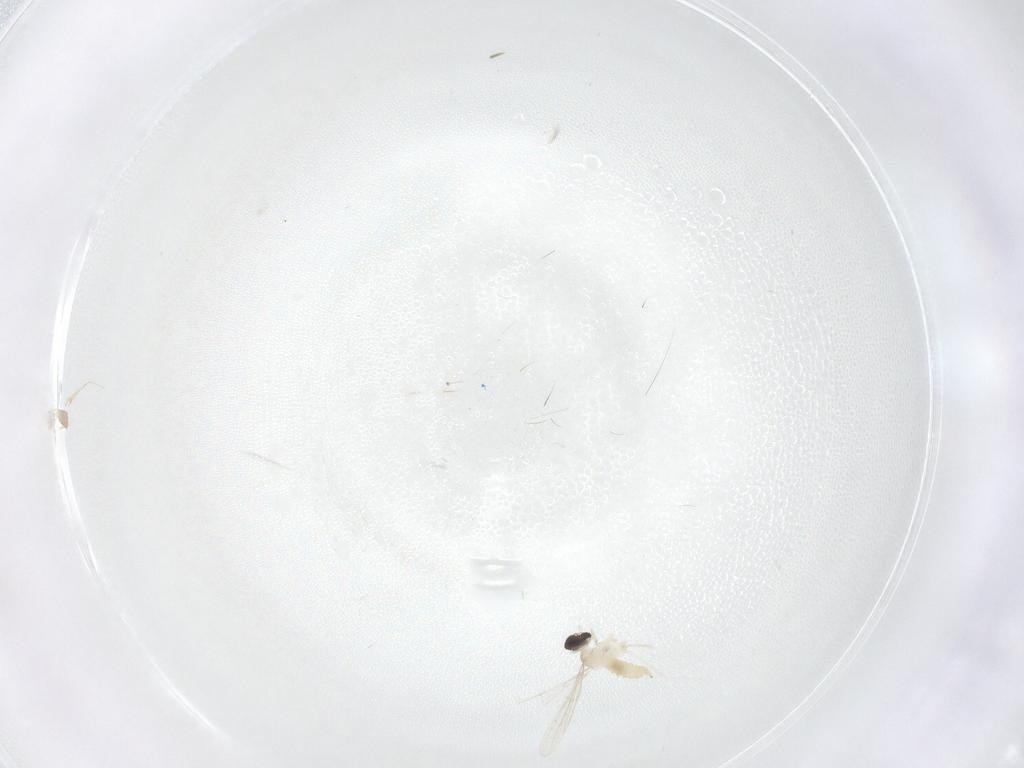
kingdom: Animalia
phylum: Arthropoda
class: Insecta
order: Diptera
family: Cecidomyiidae
